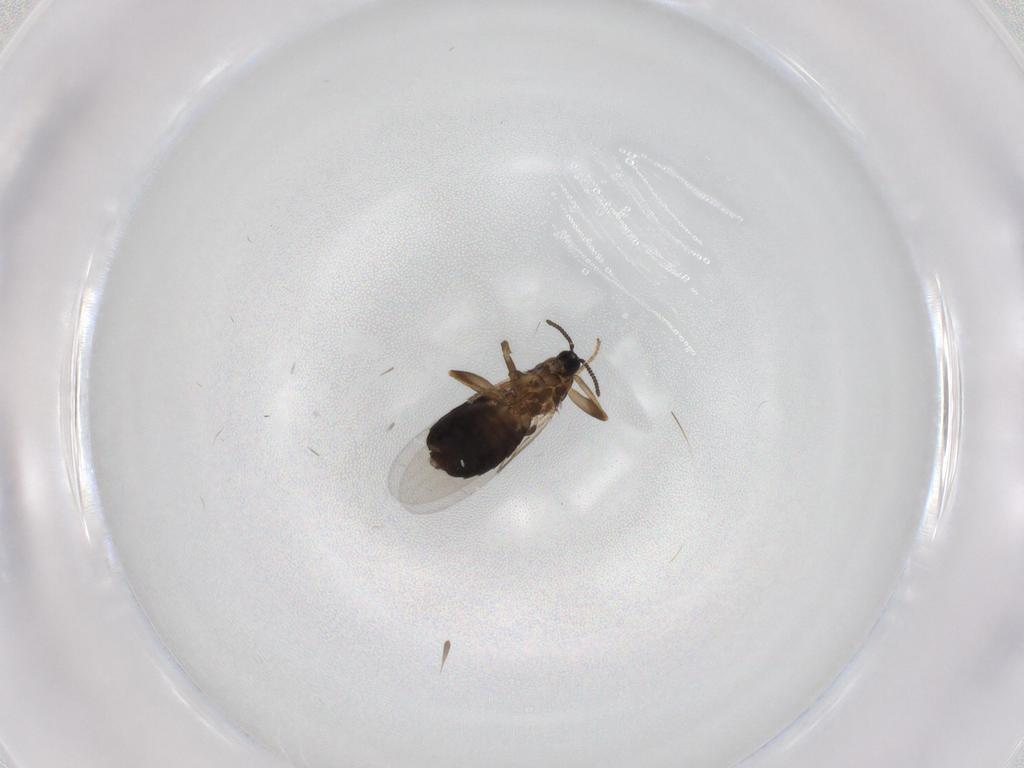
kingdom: Animalia
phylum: Arthropoda
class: Insecta
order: Diptera
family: Scatopsidae
